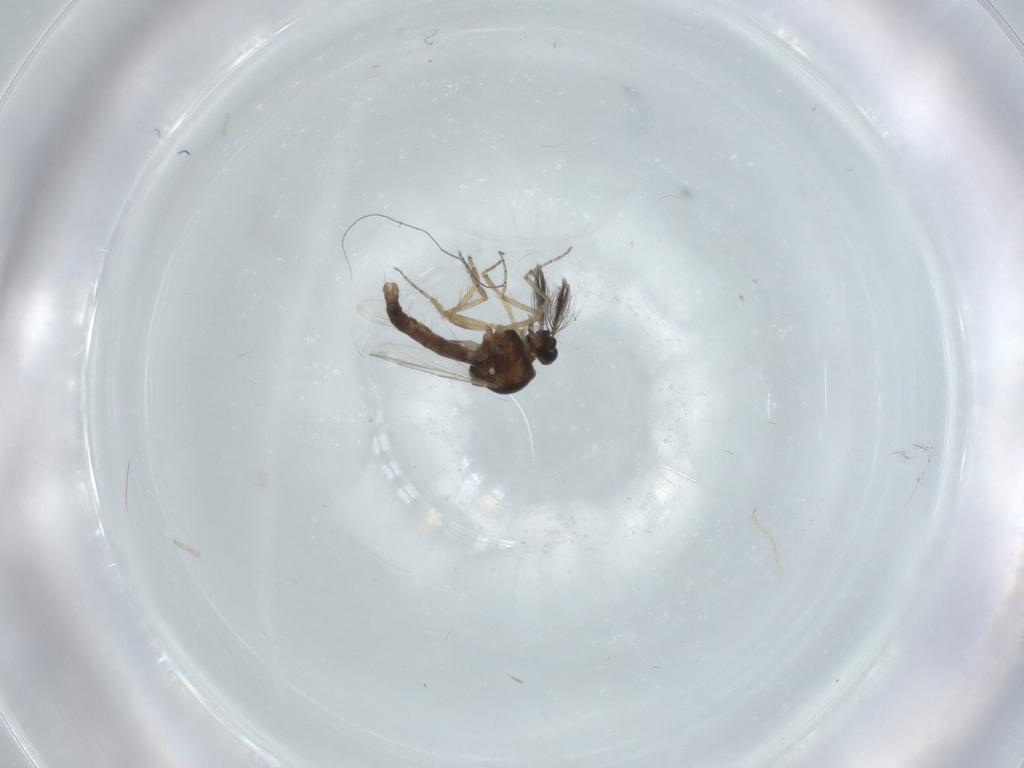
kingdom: Animalia
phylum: Arthropoda
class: Insecta
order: Diptera
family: Ceratopogonidae
